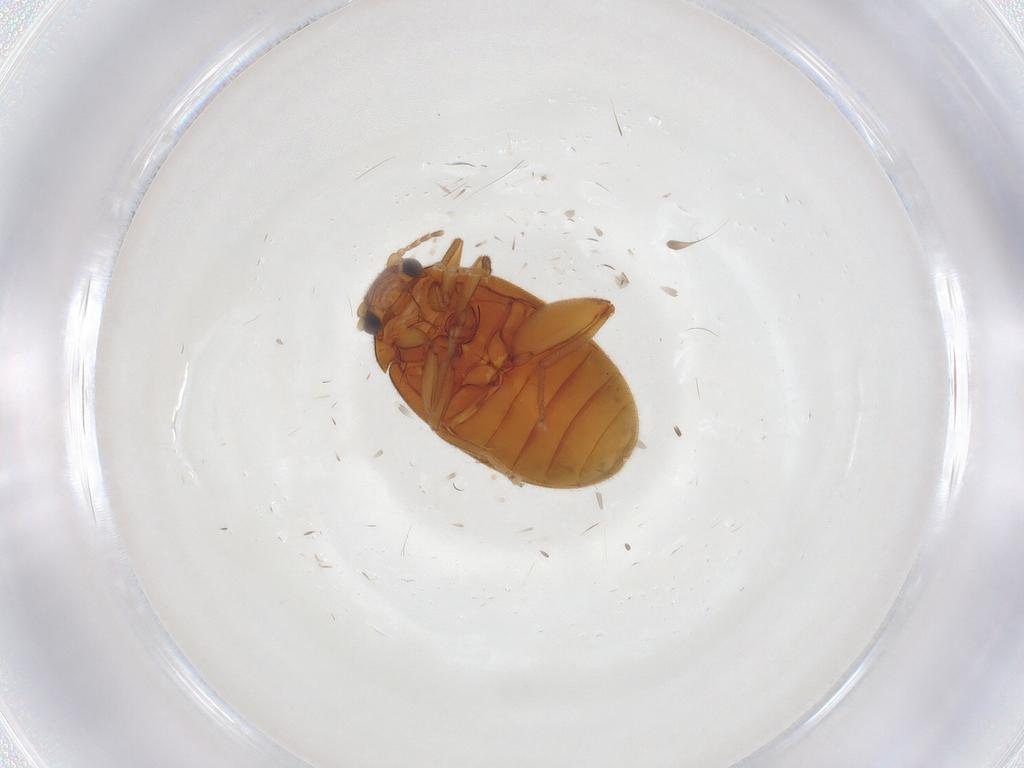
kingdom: Animalia
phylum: Arthropoda
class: Insecta
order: Coleoptera
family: Scirtidae
